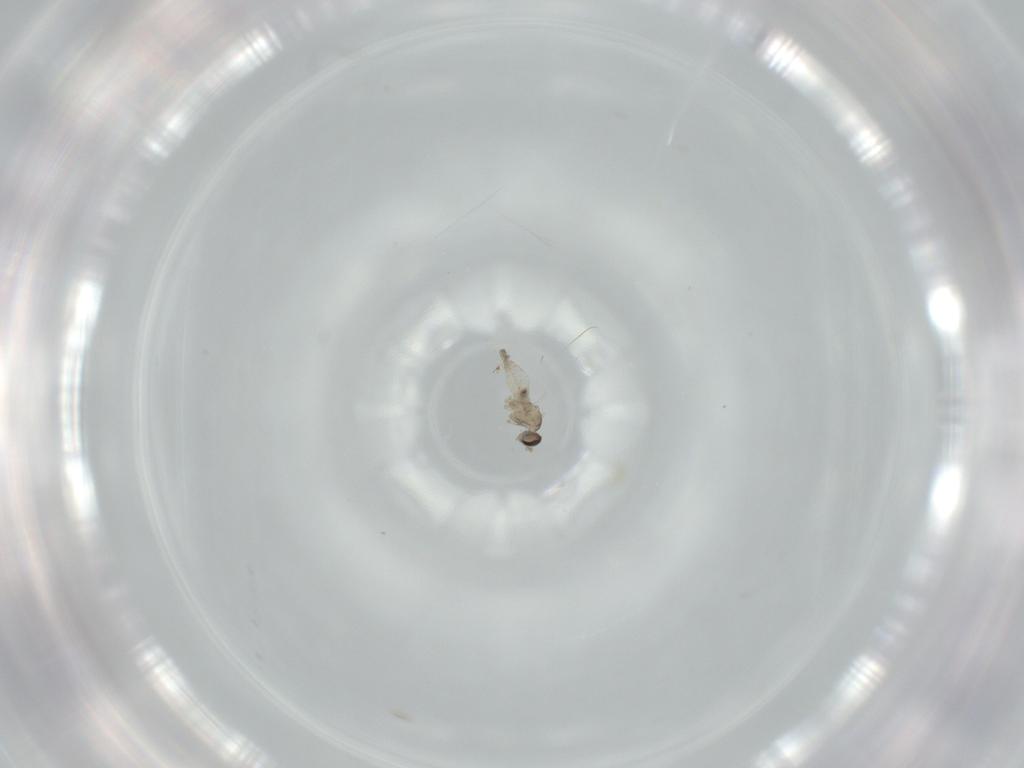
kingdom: Animalia
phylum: Arthropoda
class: Insecta
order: Diptera
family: Cecidomyiidae
